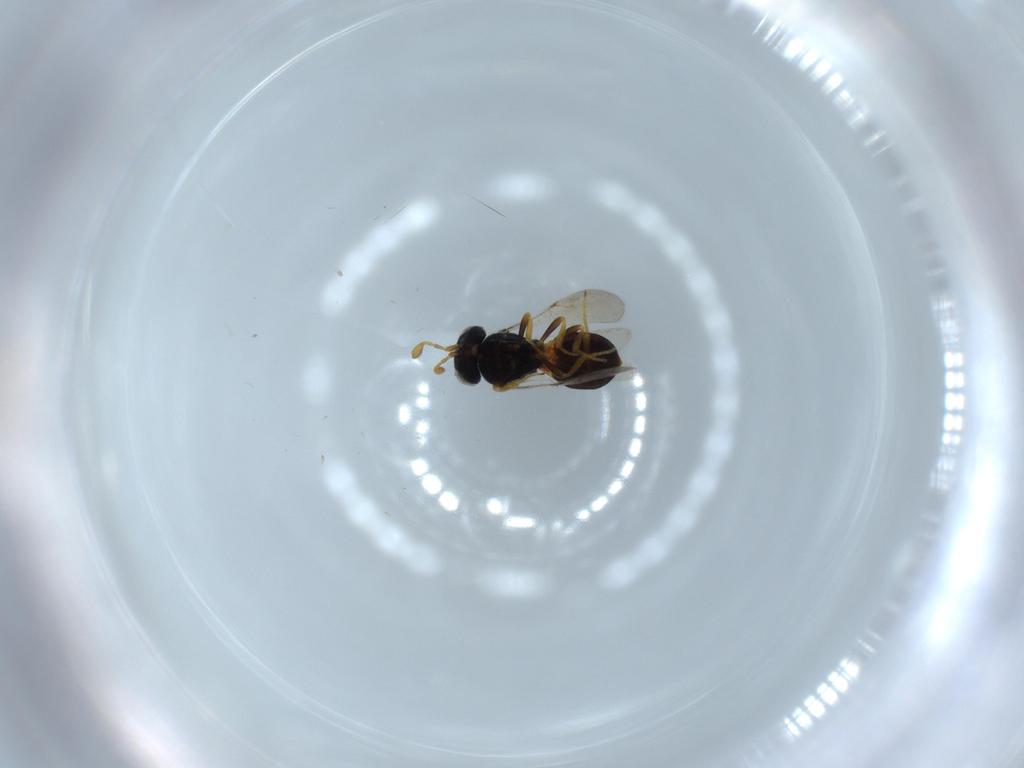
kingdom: Animalia
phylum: Arthropoda
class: Insecta
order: Hymenoptera
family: Scelionidae
